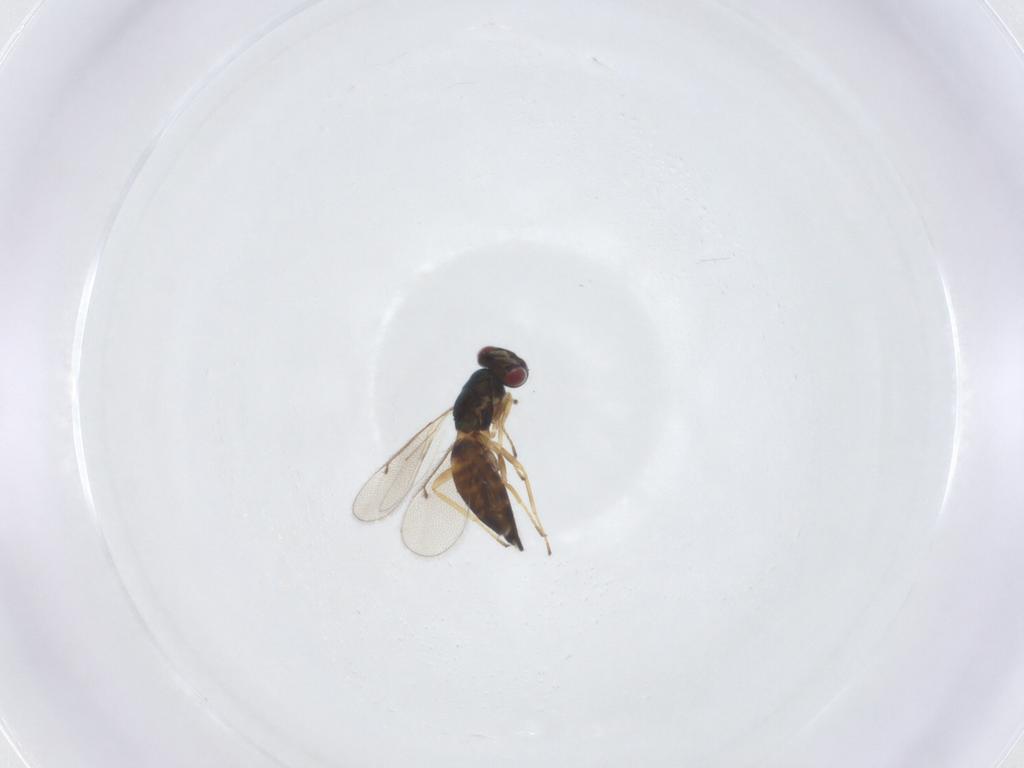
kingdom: Animalia
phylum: Arthropoda
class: Insecta
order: Hymenoptera
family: Eulophidae
